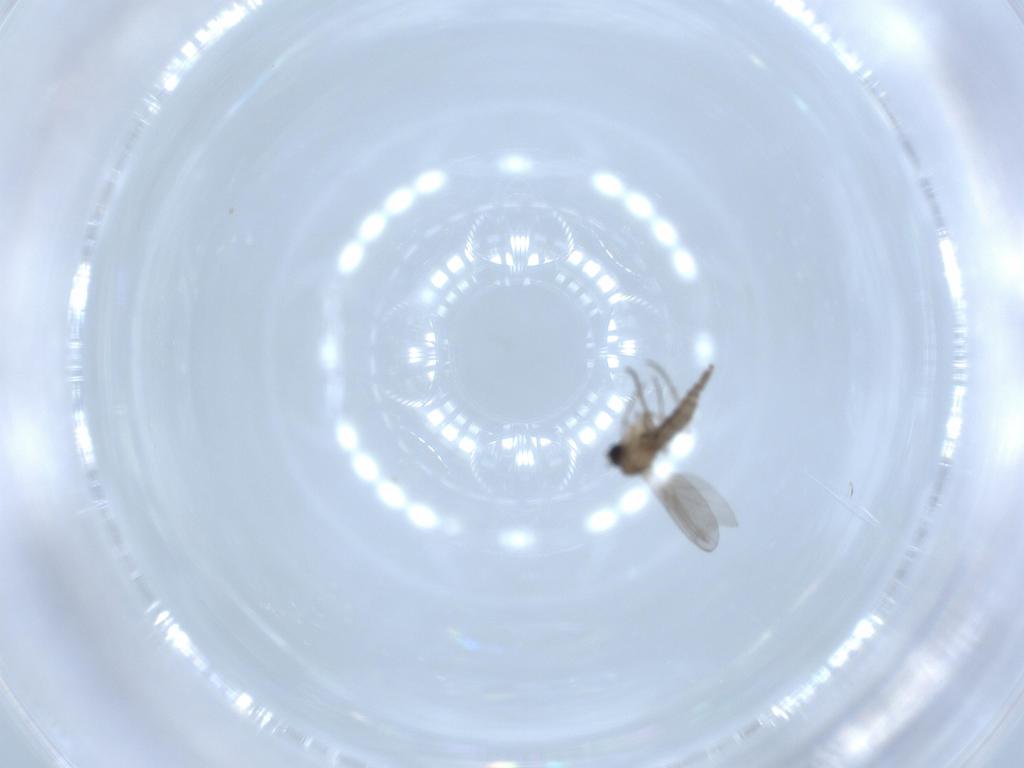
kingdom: Animalia
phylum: Arthropoda
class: Insecta
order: Diptera
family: Sciaridae
